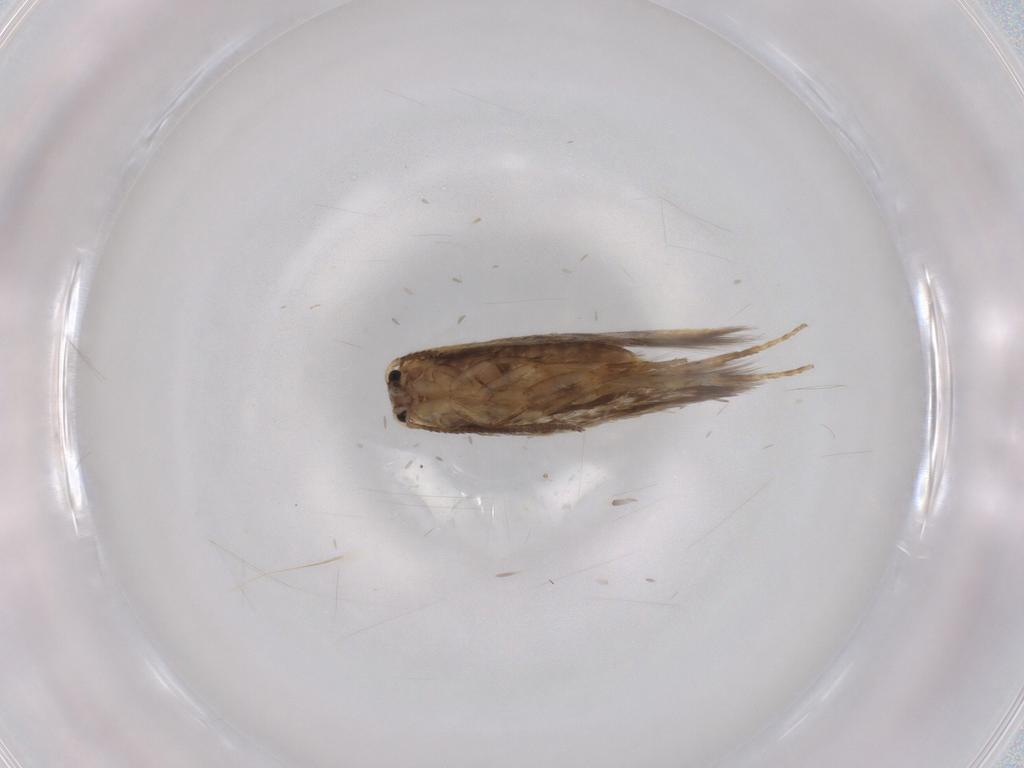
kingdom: Animalia
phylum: Arthropoda
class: Insecta
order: Lepidoptera
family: Nepticulidae
